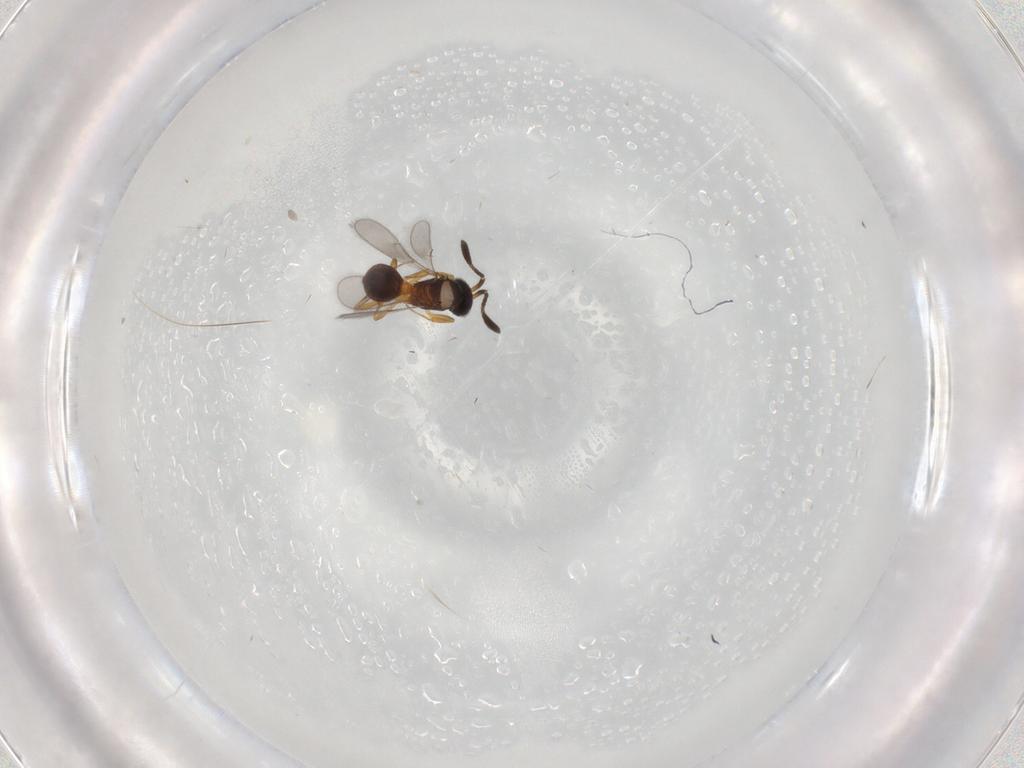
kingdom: Animalia
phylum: Arthropoda
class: Insecta
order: Hymenoptera
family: Scelionidae
